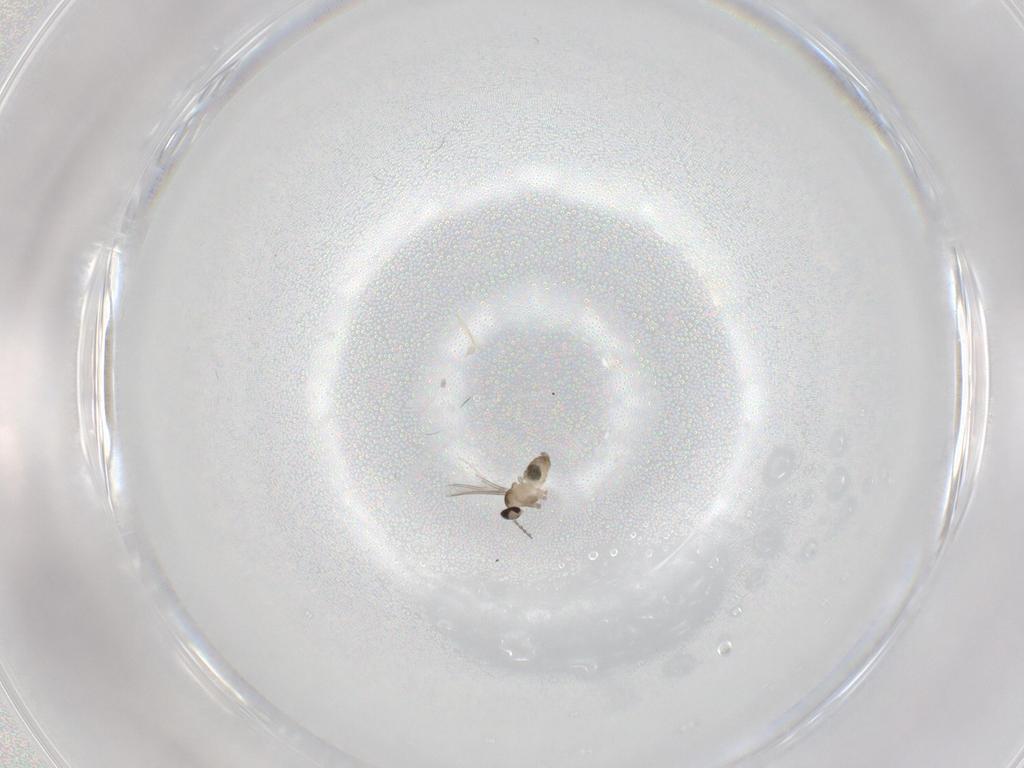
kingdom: Animalia
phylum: Arthropoda
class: Insecta
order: Diptera
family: Cecidomyiidae
